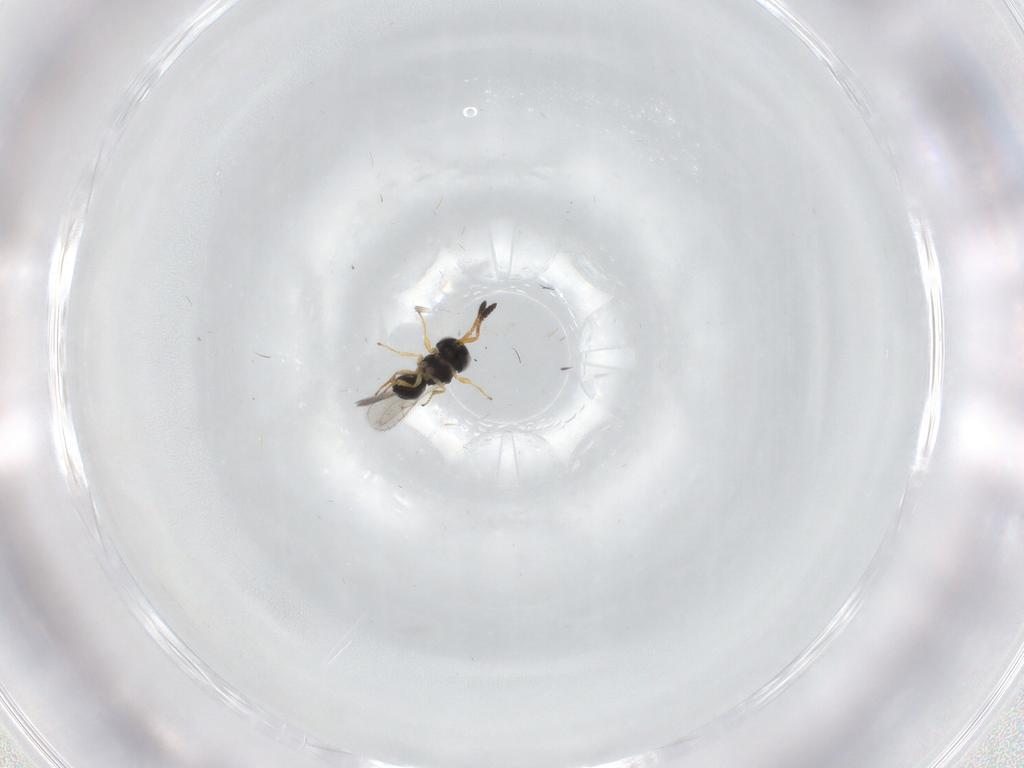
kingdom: Animalia
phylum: Arthropoda
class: Insecta
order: Hymenoptera
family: Scelionidae
